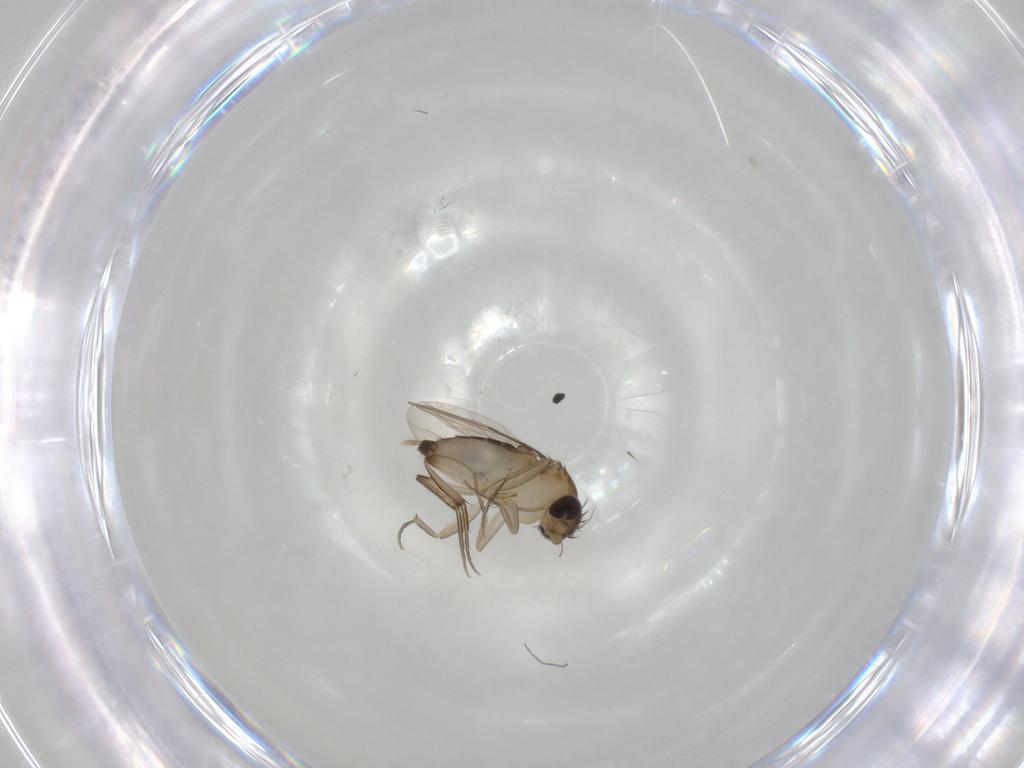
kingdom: Animalia
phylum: Arthropoda
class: Insecta
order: Diptera
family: Phoridae
